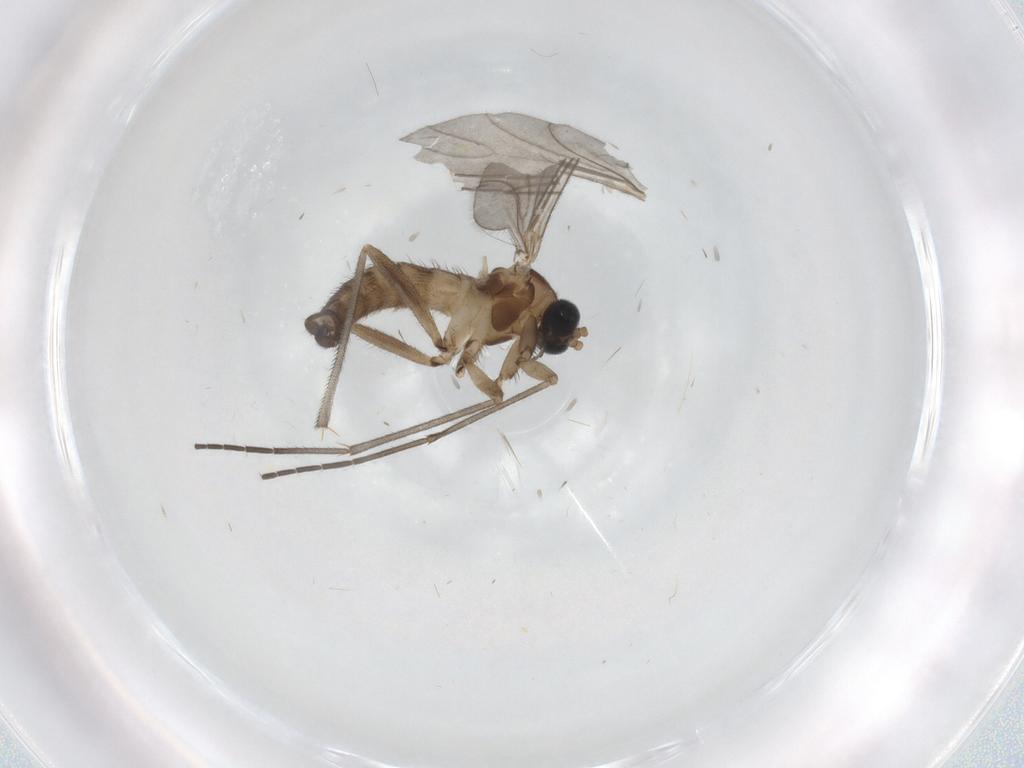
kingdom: Animalia
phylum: Arthropoda
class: Insecta
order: Diptera
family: Sciaridae
